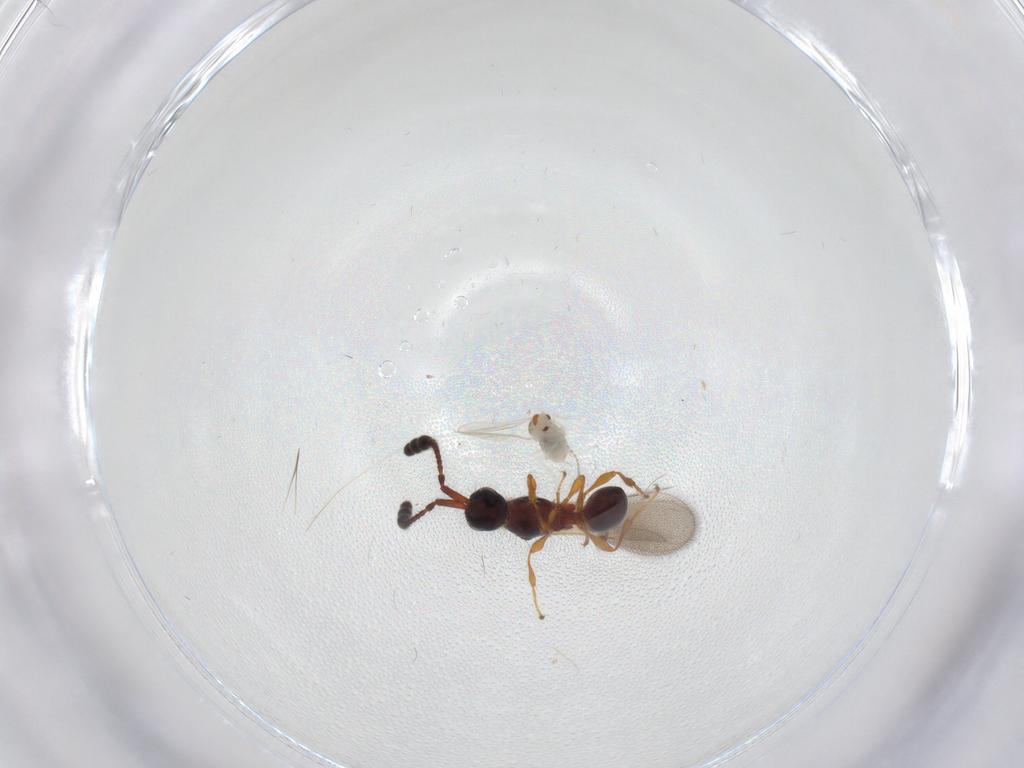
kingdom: Animalia
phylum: Arthropoda
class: Insecta
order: Diptera
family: Cecidomyiidae
